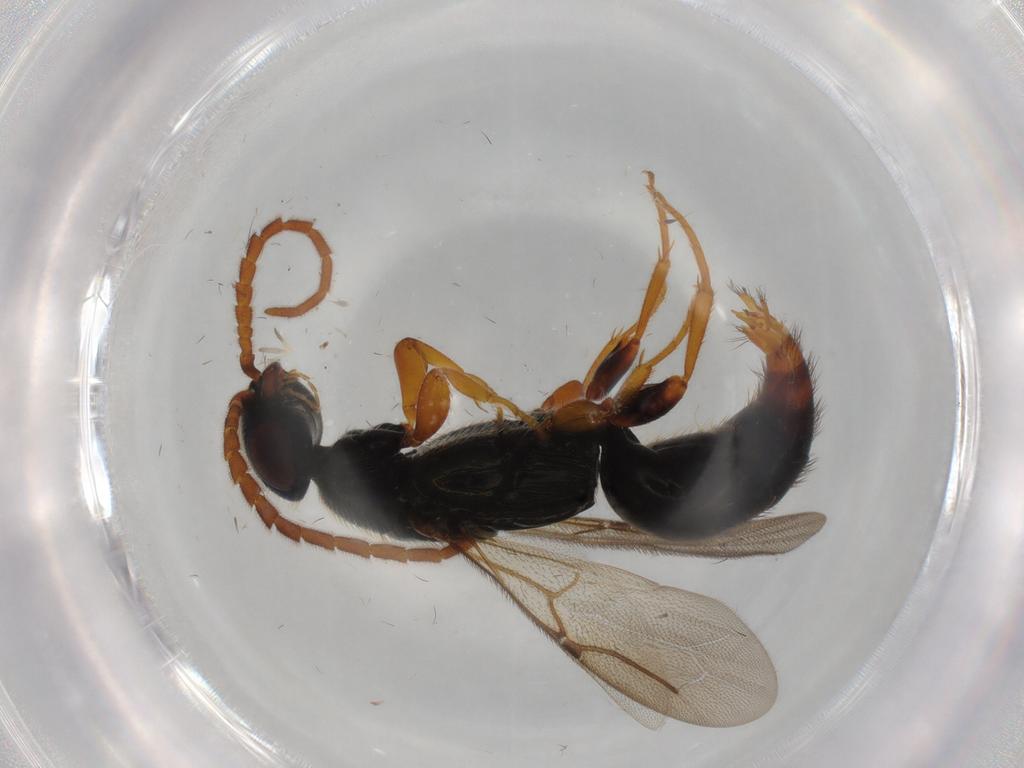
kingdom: Animalia
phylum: Arthropoda
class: Insecta
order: Hymenoptera
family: Bethylidae
